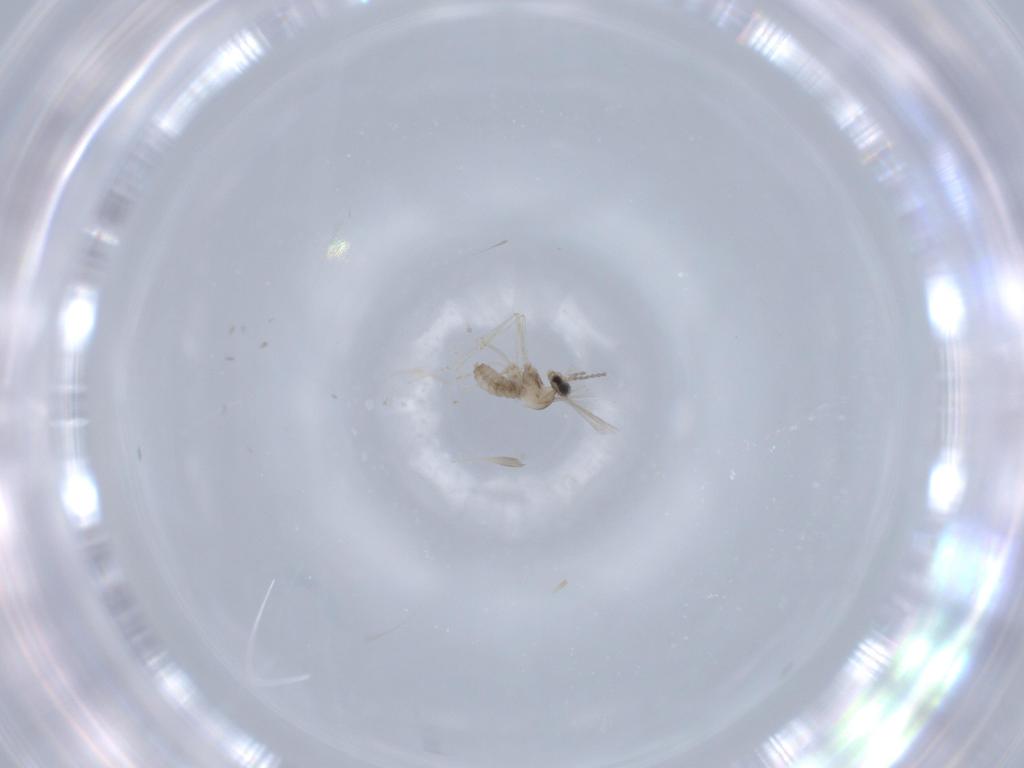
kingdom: Animalia
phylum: Arthropoda
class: Insecta
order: Diptera
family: Cecidomyiidae
